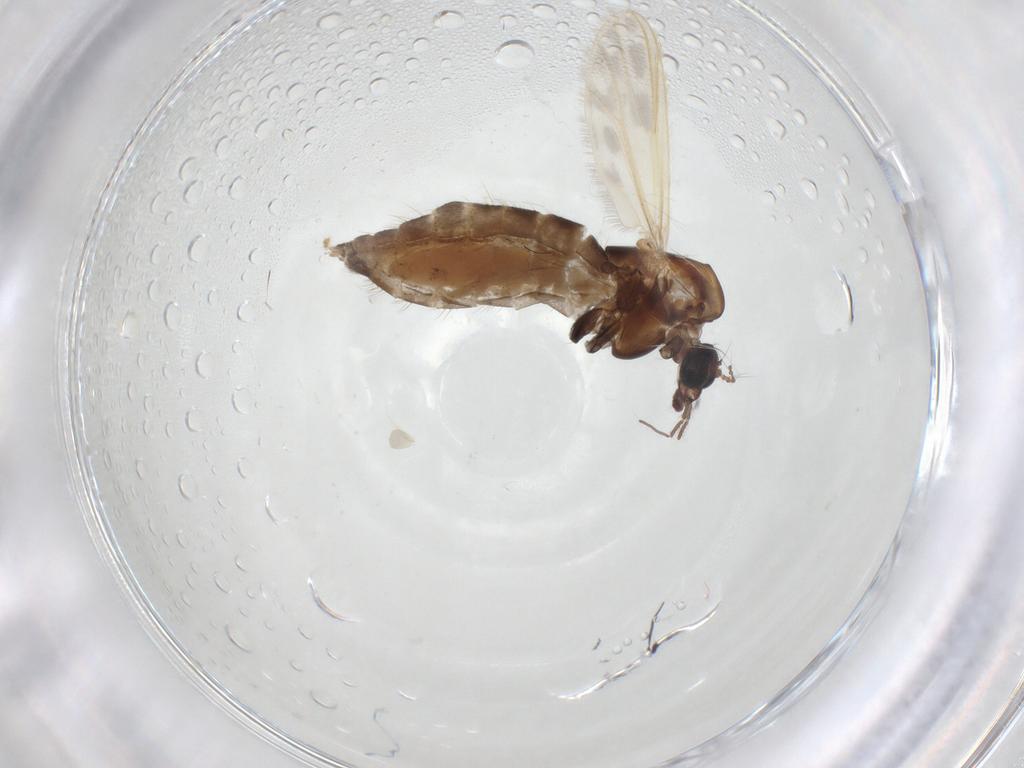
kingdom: Animalia
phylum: Arthropoda
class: Insecta
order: Diptera
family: Chironomidae
